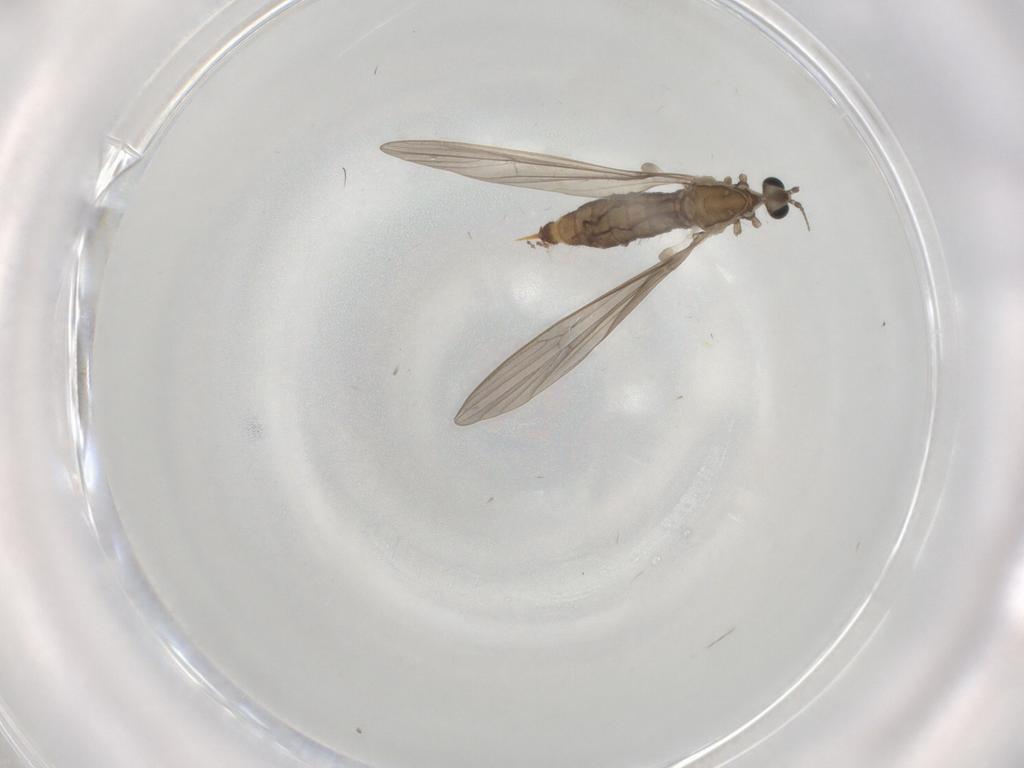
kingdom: Animalia
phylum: Arthropoda
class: Insecta
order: Diptera
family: Limoniidae
